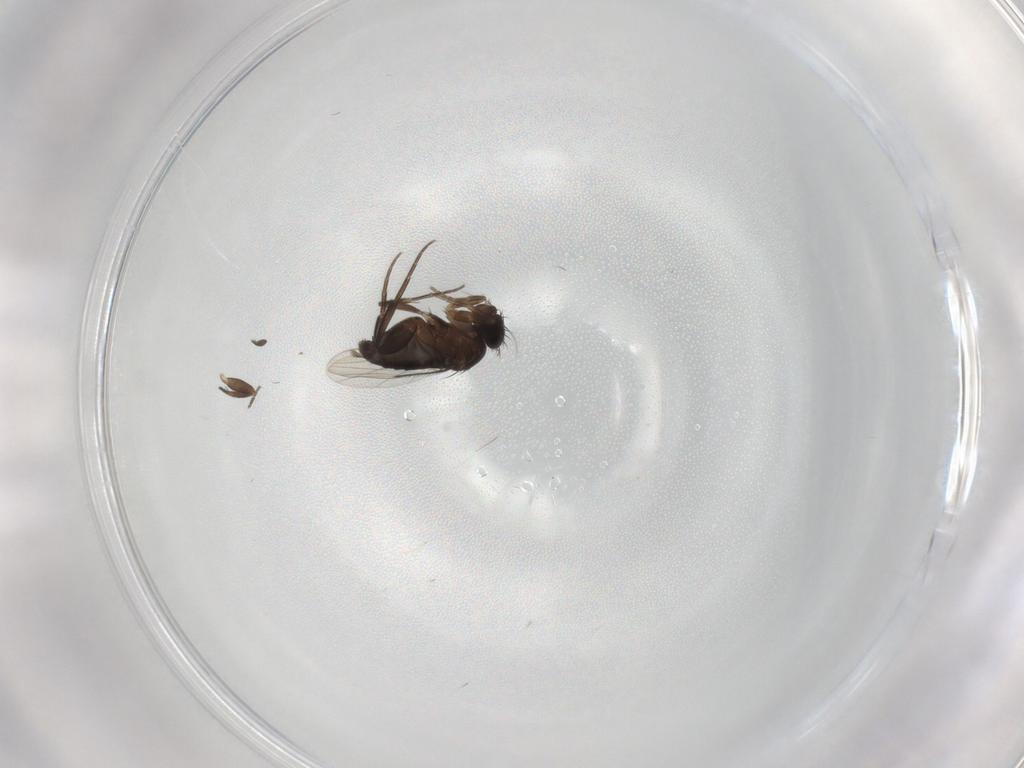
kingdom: Animalia
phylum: Arthropoda
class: Insecta
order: Diptera
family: Phoridae
